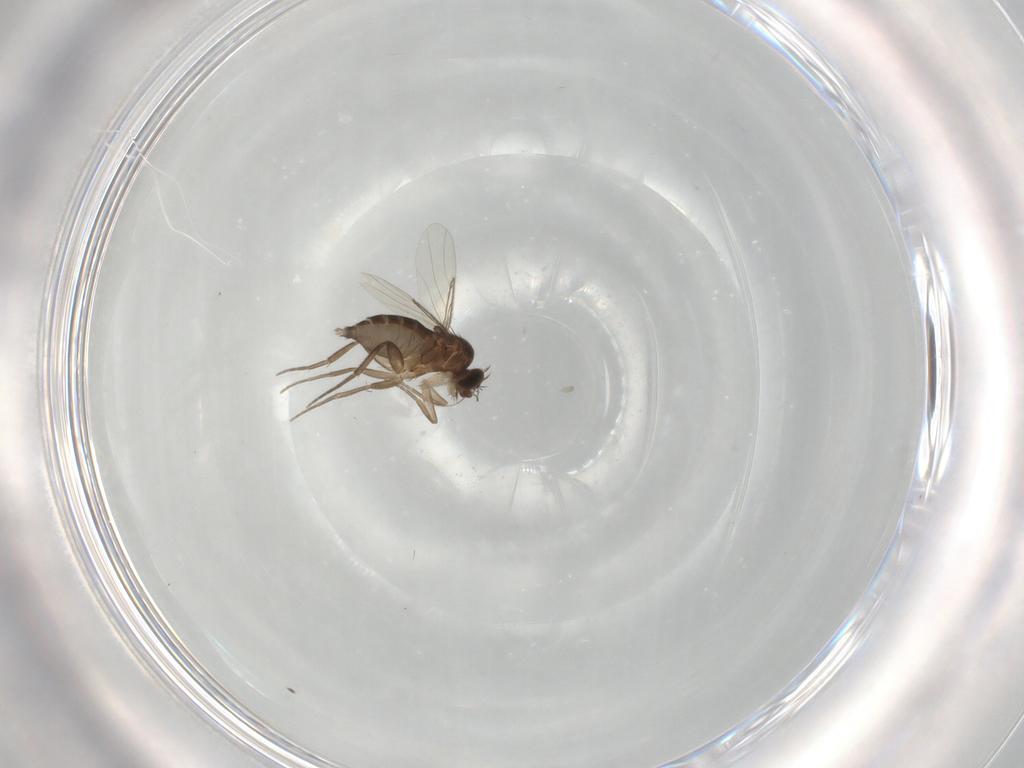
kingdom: Animalia
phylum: Arthropoda
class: Insecta
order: Diptera
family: Phoridae
